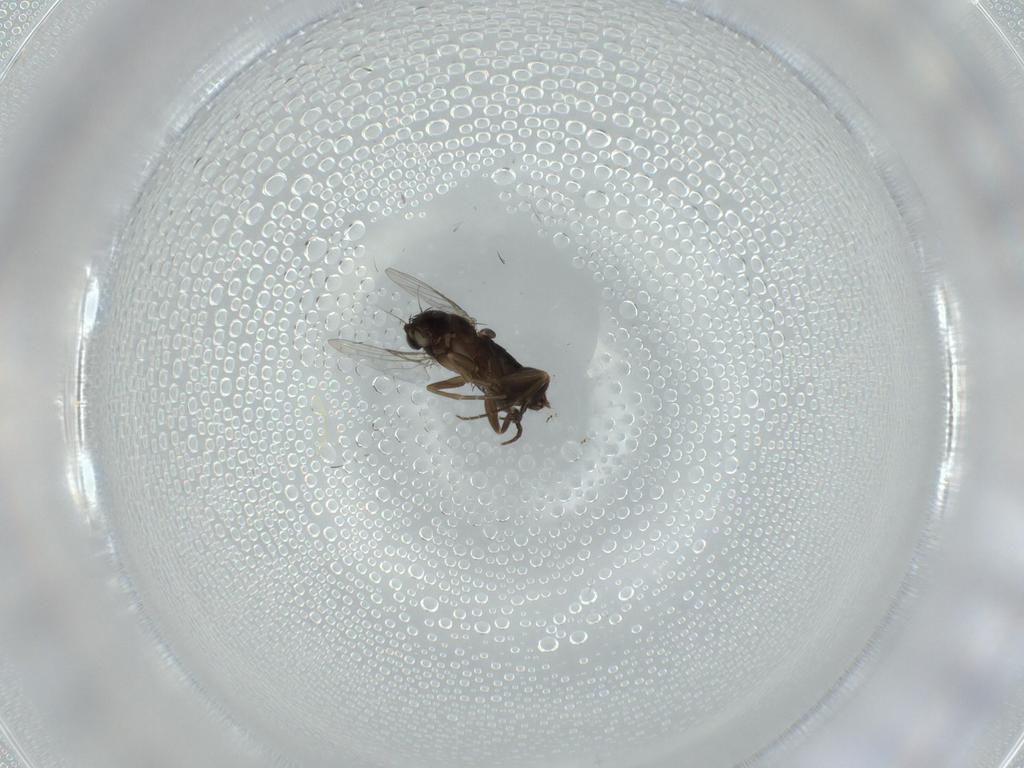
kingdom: Animalia
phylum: Arthropoda
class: Insecta
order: Diptera
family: Phoridae
